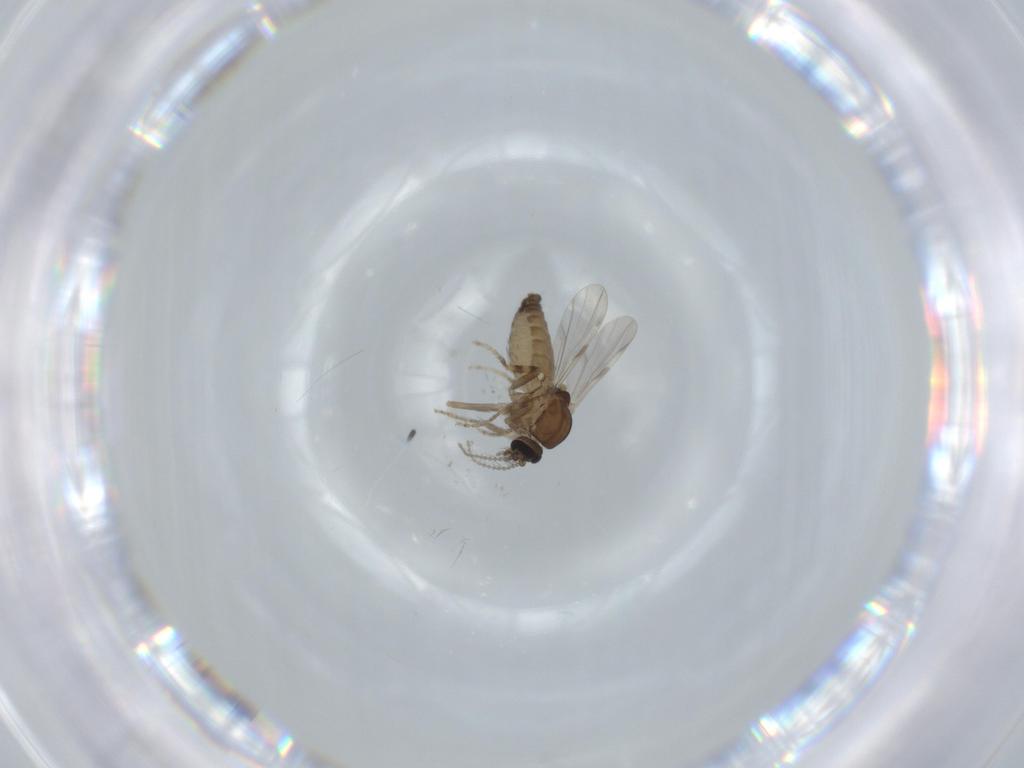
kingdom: Animalia
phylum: Arthropoda
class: Insecta
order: Diptera
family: Ceratopogonidae
